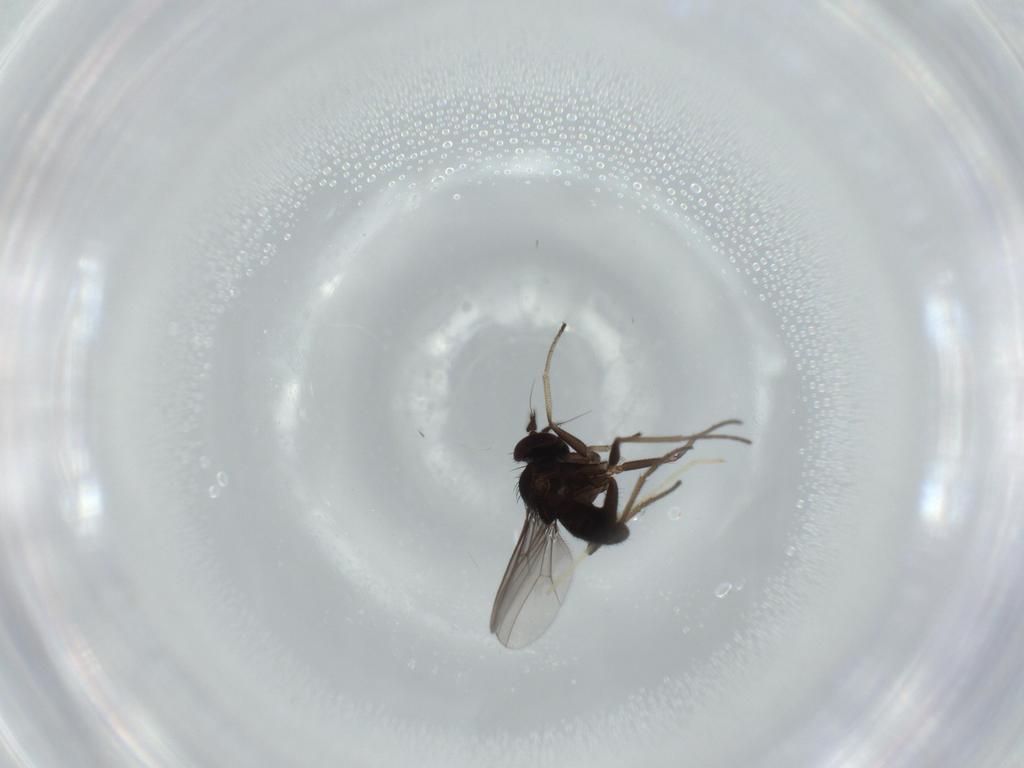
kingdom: Animalia
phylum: Arthropoda
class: Insecta
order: Diptera
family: Dolichopodidae
